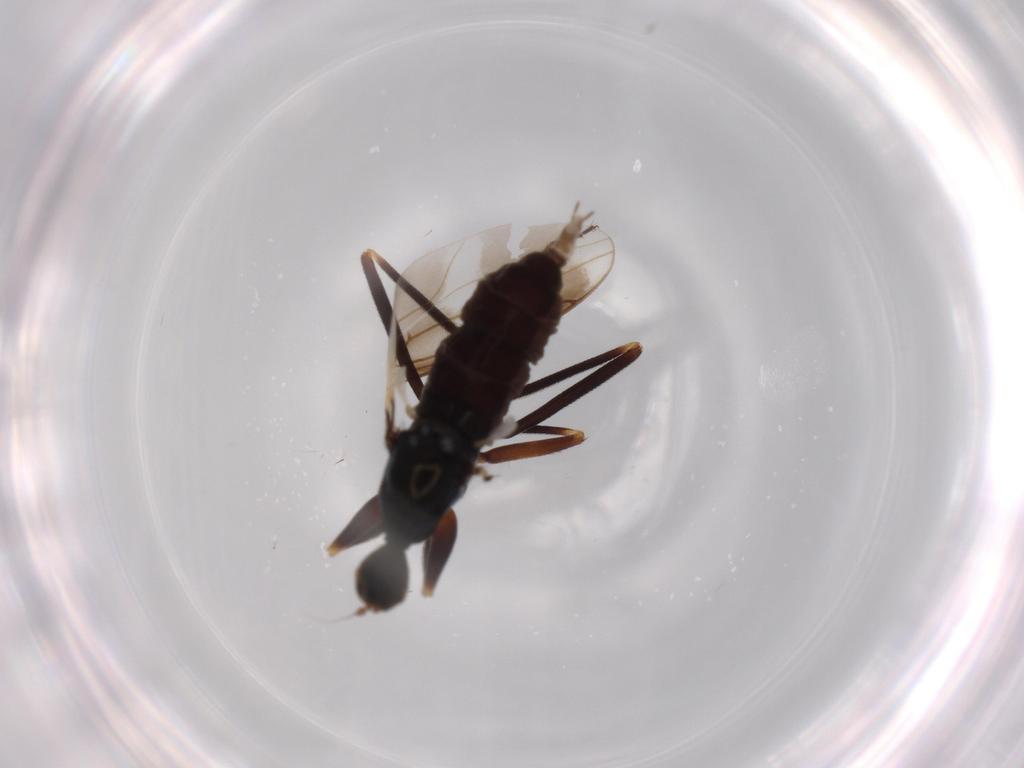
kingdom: Animalia
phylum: Arthropoda
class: Insecta
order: Diptera
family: Hybotidae
